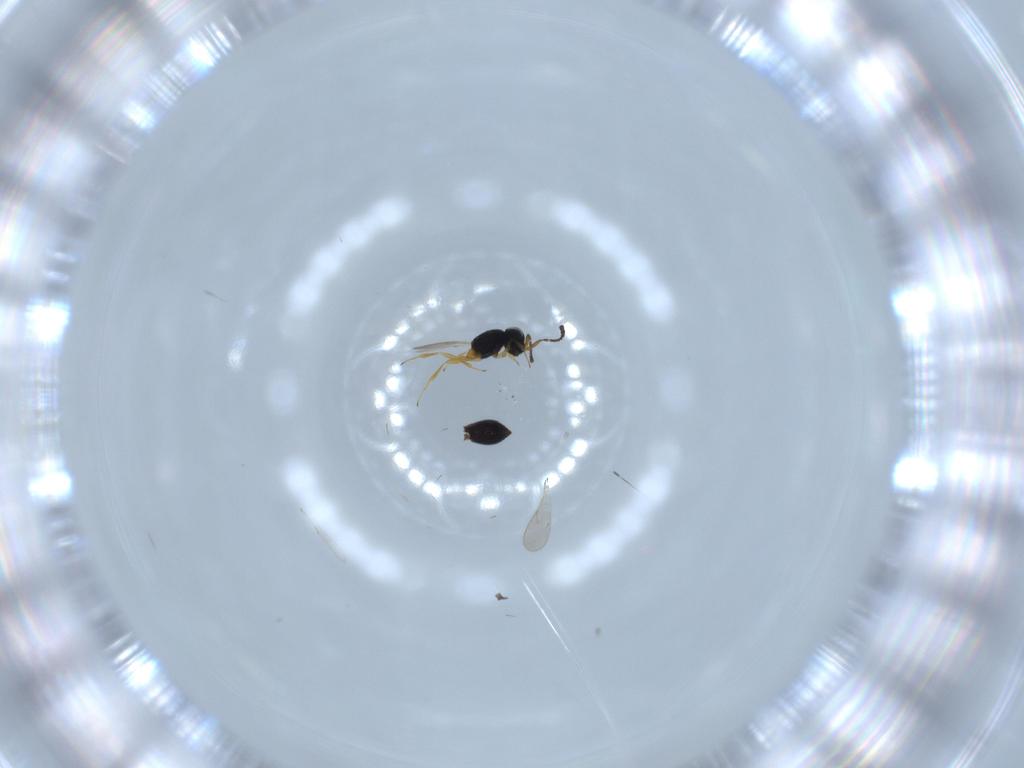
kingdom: Animalia
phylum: Arthropoda
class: Insecta
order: Hymenoptera
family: Scelionidae
